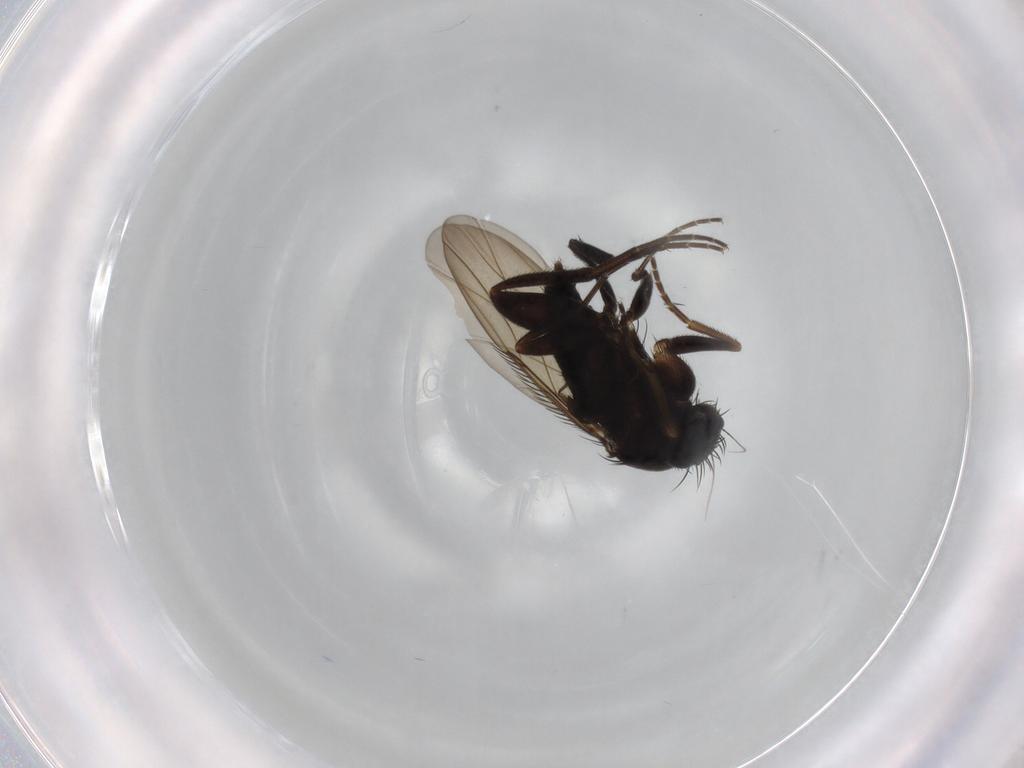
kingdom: Animalia
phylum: Arthropoda
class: Insecta
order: Diptera
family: Phoridae
